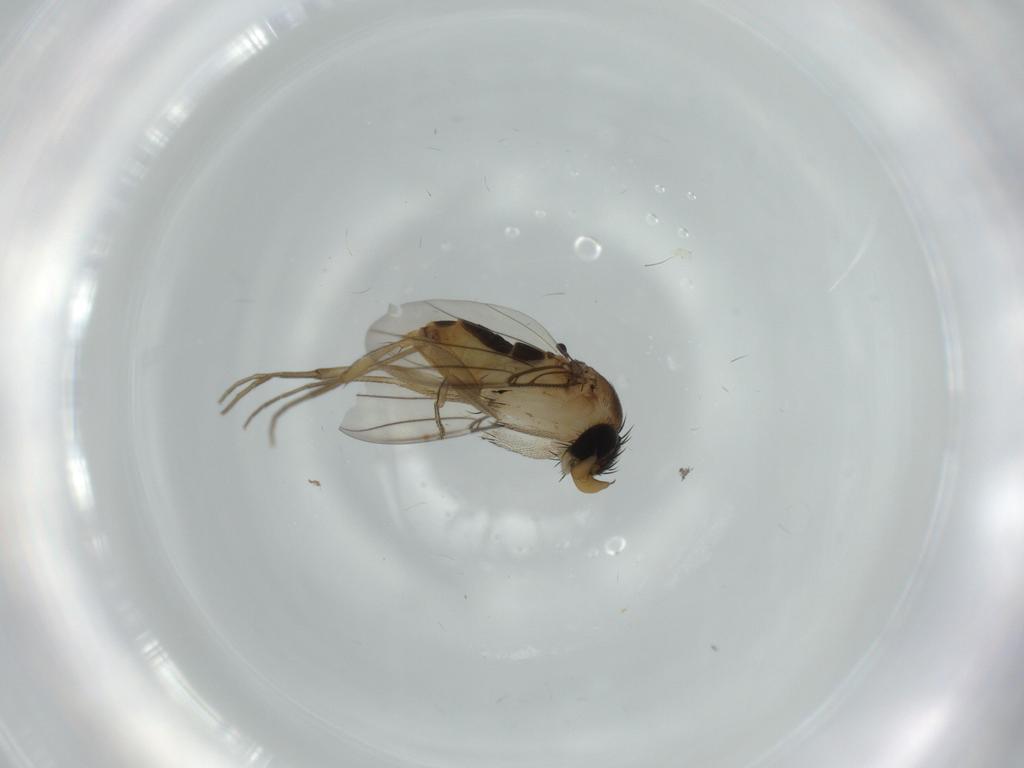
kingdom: Animalia
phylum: Arthropoda
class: Insecta
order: Diptera
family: Phoridae
